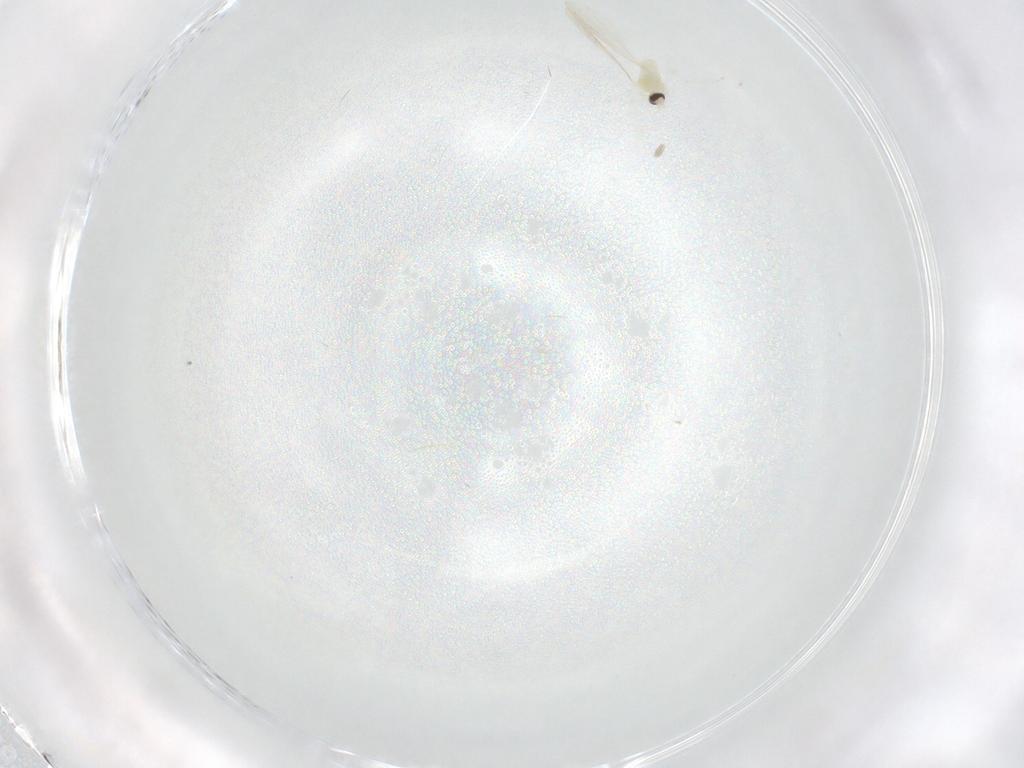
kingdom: Animalia
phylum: Arthropoda
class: Insecta
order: Diptera
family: Cecidomyiidae
